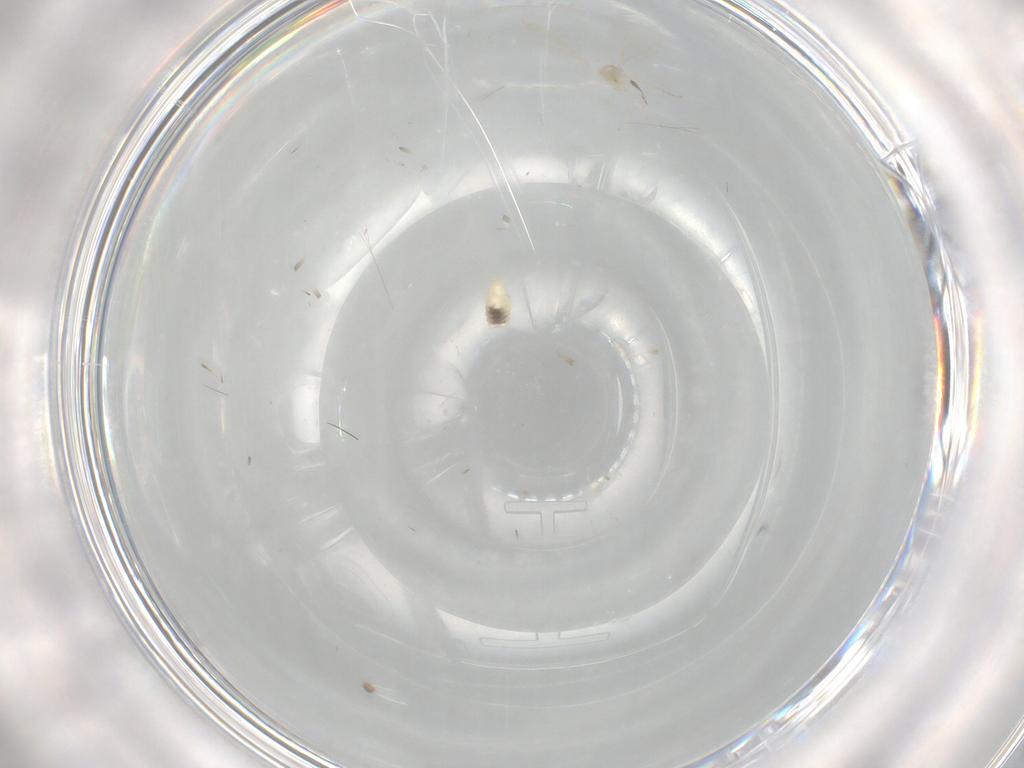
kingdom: Animalia
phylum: Arthropoda
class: Insecta
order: Diptera
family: Cecidomyiidae
